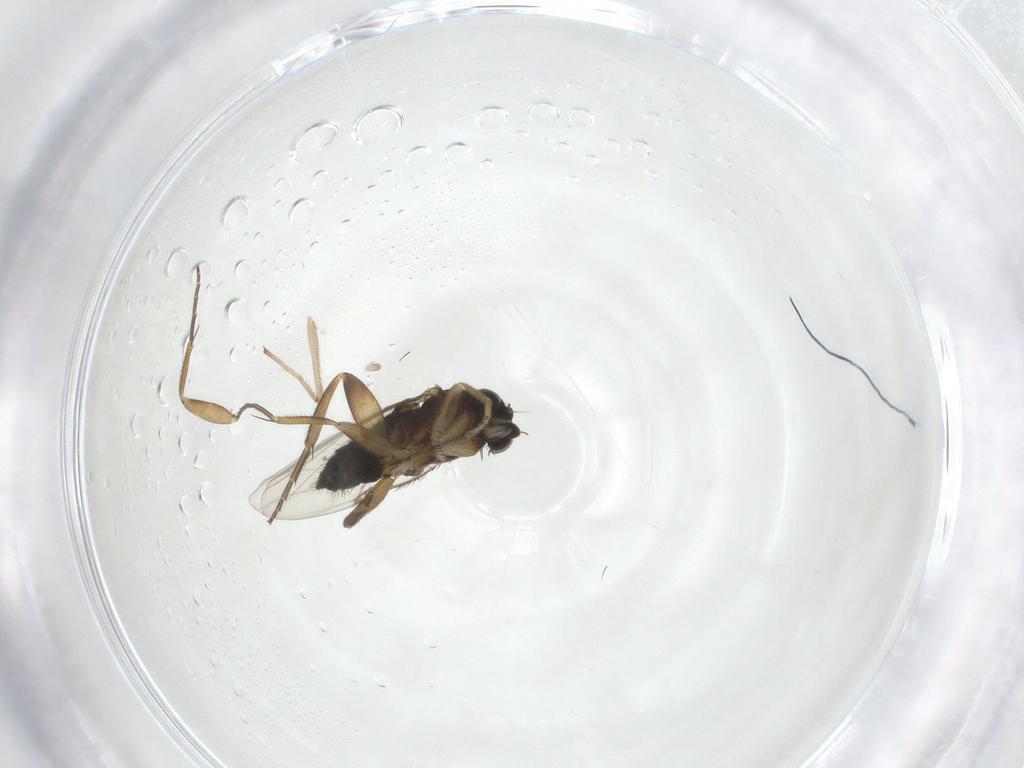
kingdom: Animalia
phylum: Arthropoda
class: Insecta
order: Diptera
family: Phoridae
